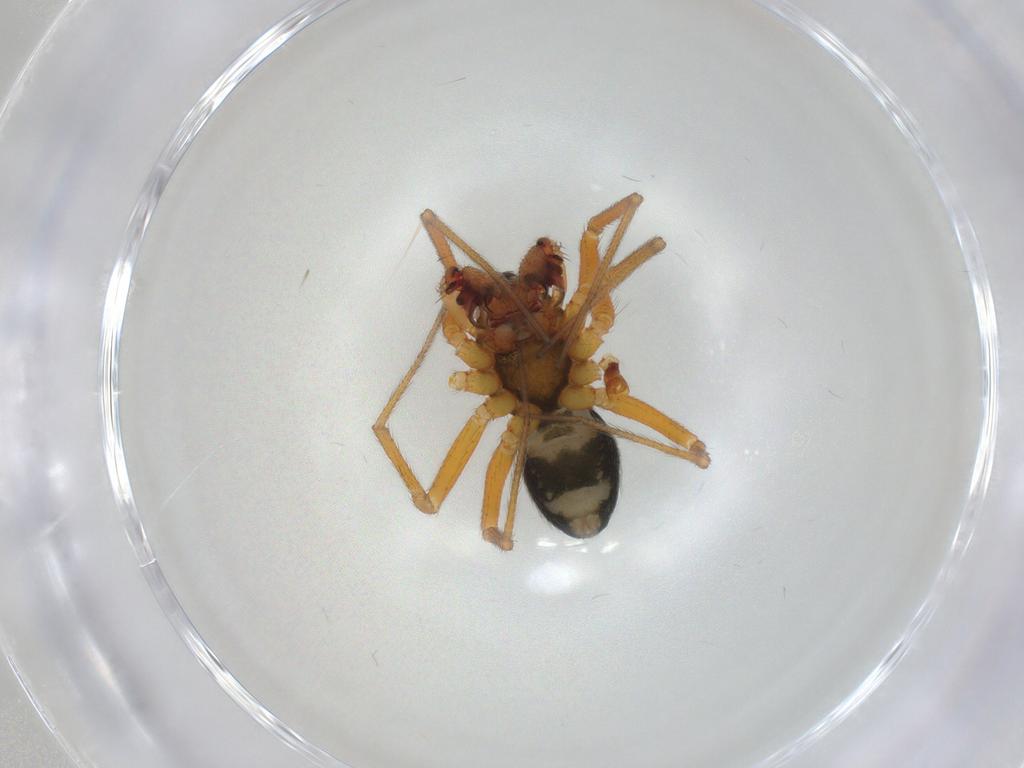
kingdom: Animalia
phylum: Arthropoda
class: Arachnida
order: Araneae
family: Linyphiidae
